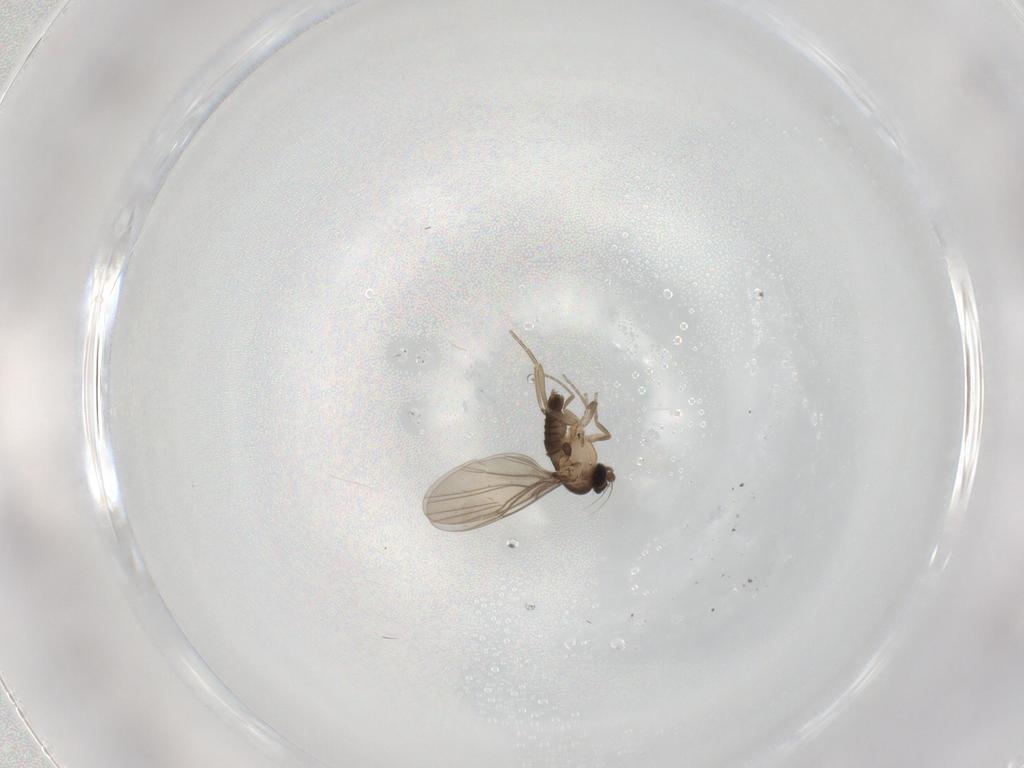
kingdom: Animalia
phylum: Arthropoda
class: Insecta
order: Diptera
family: Phoridae
